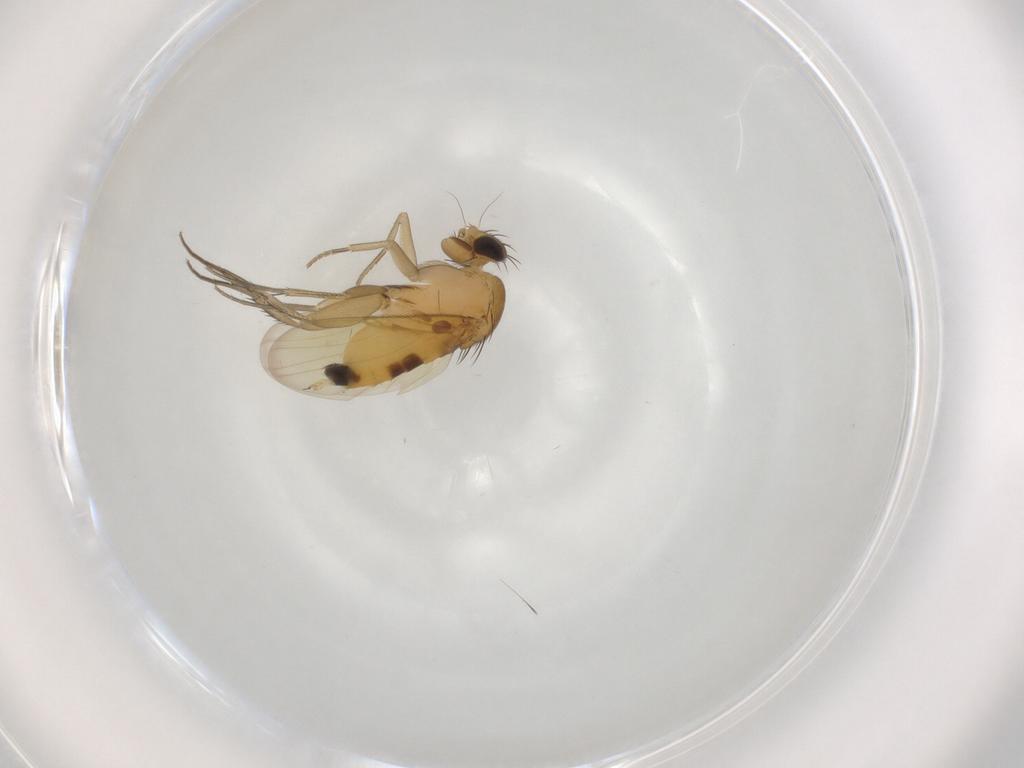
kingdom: Animalia
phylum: Arthropoda
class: Insecta
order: Diptera
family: Phoridae
